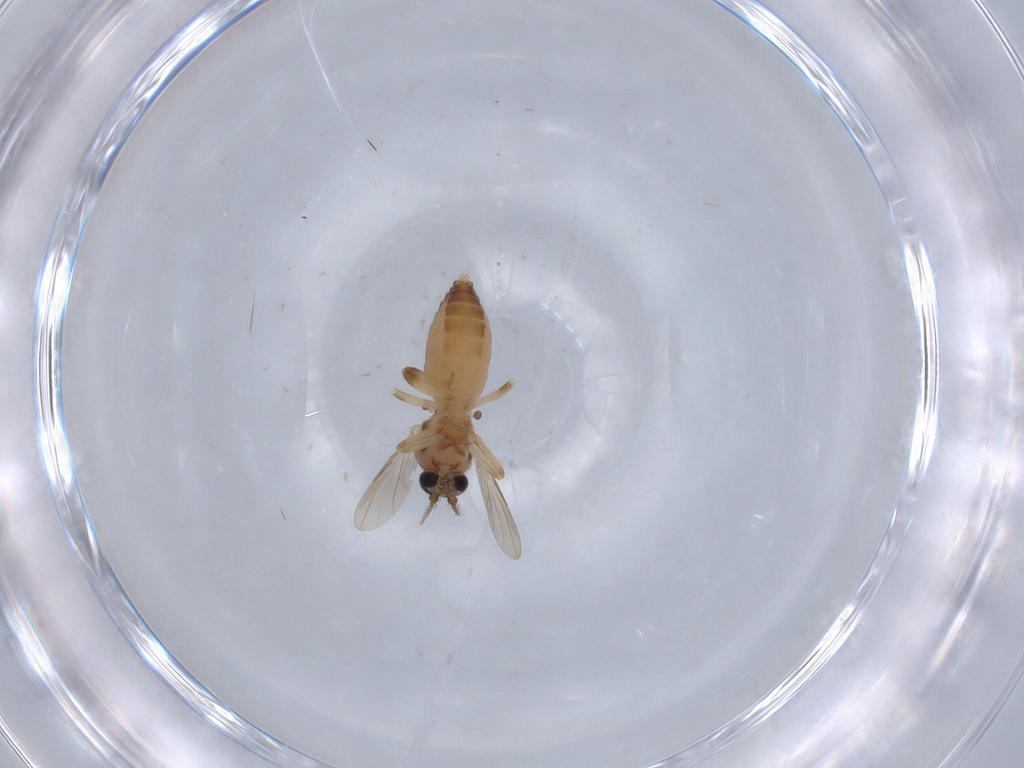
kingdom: Animalia
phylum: Arthropoda
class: Insecta
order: Diptera
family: Ceratopogonidae
